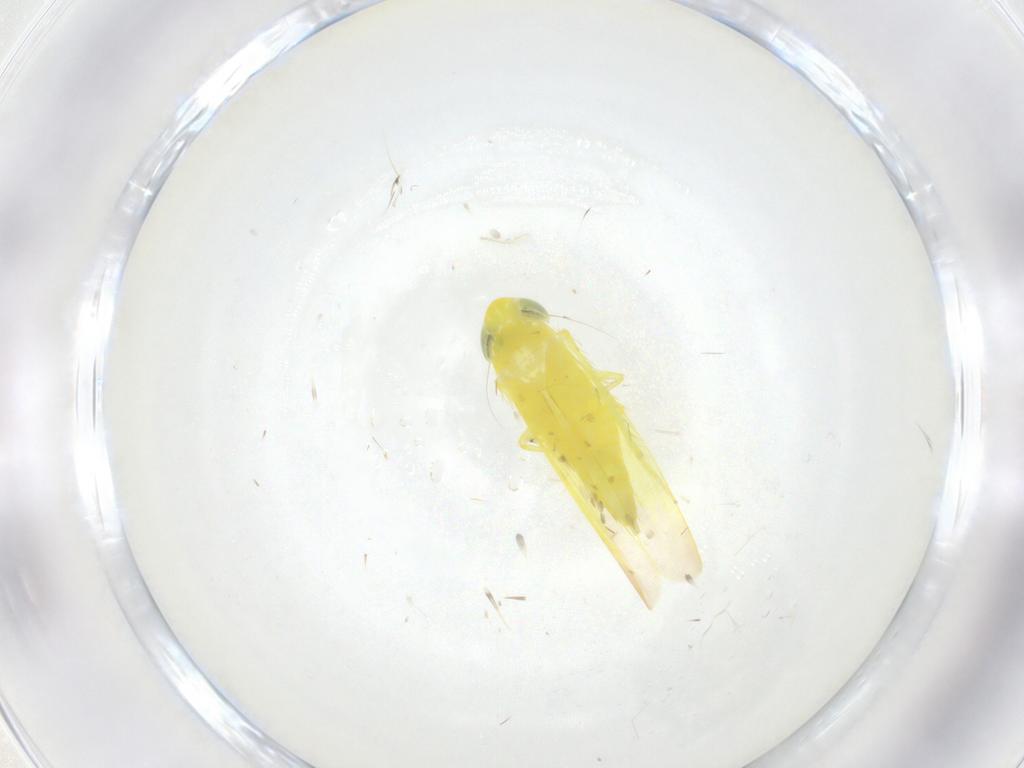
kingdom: Animalia
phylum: Arthropoda
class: Insecta
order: Hemiptera
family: Cicadellidae
